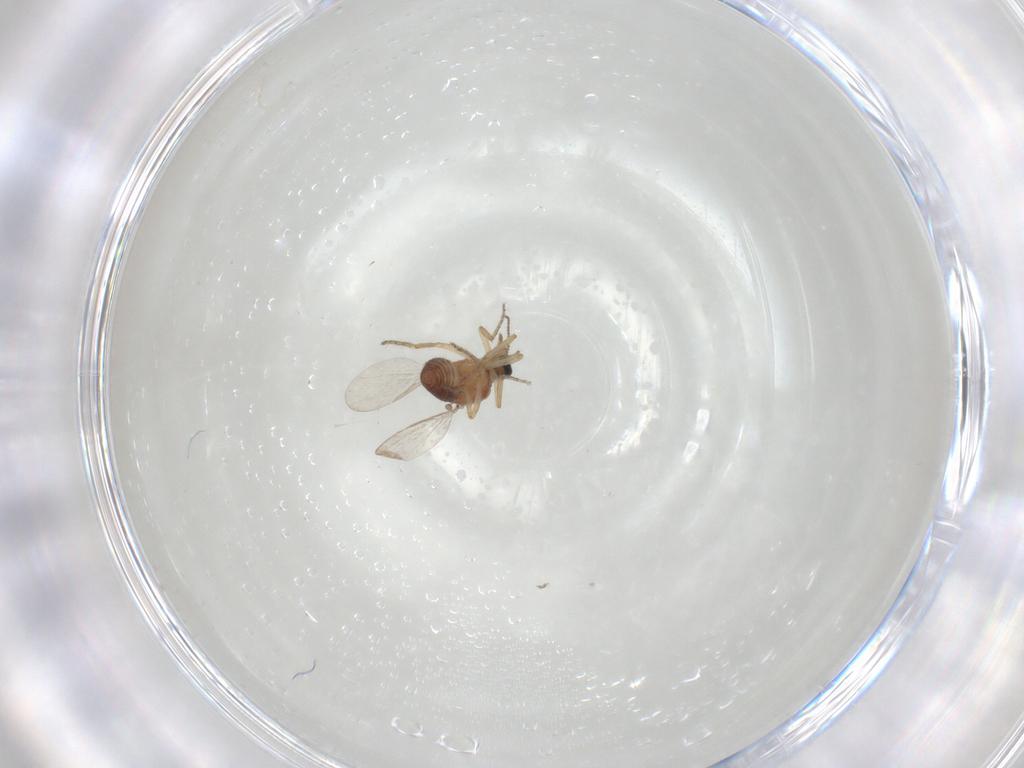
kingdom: Animalia
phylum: Arthropoda
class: Insecta
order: Diptera
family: Ceratopogonidae
